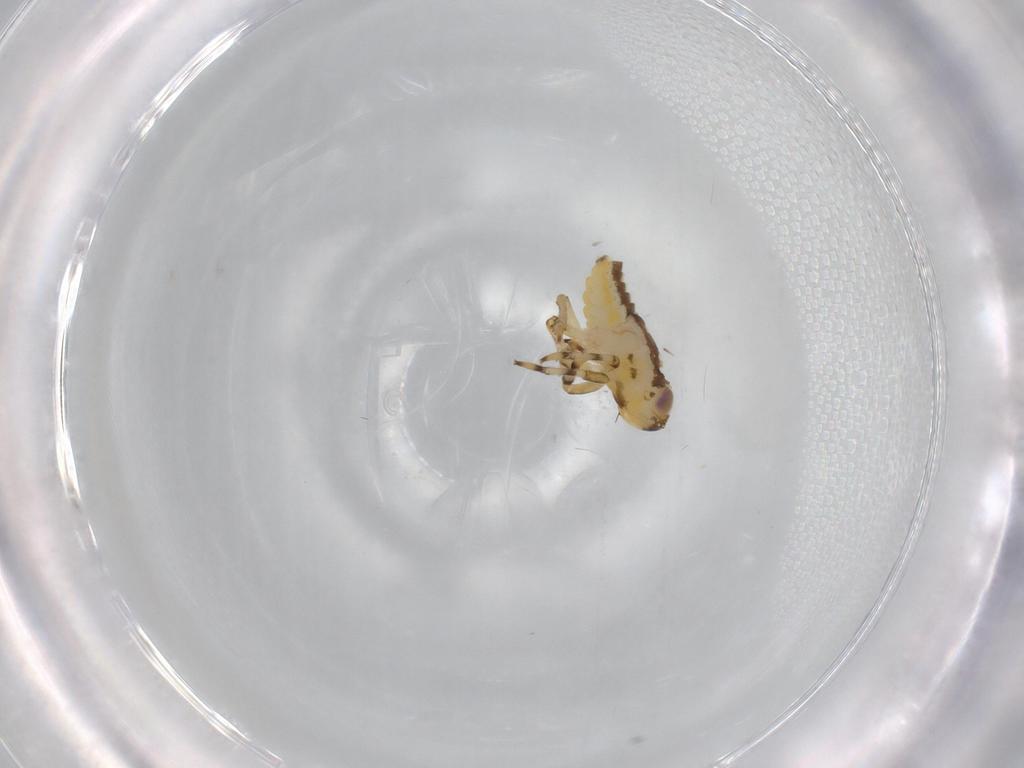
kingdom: Animalia
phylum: Arthropoda
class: Insecta
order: Hemiptera
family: Issidae
